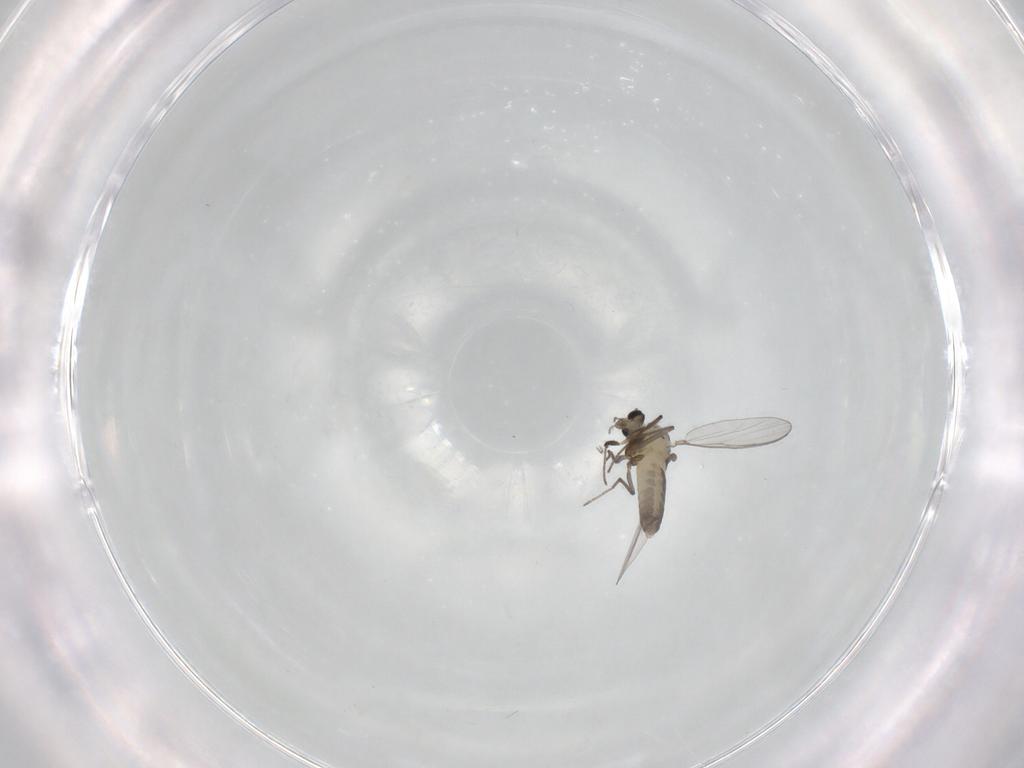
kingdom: Animalia
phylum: Arthropoda
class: Insecta
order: Diptera
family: Chironomidae
